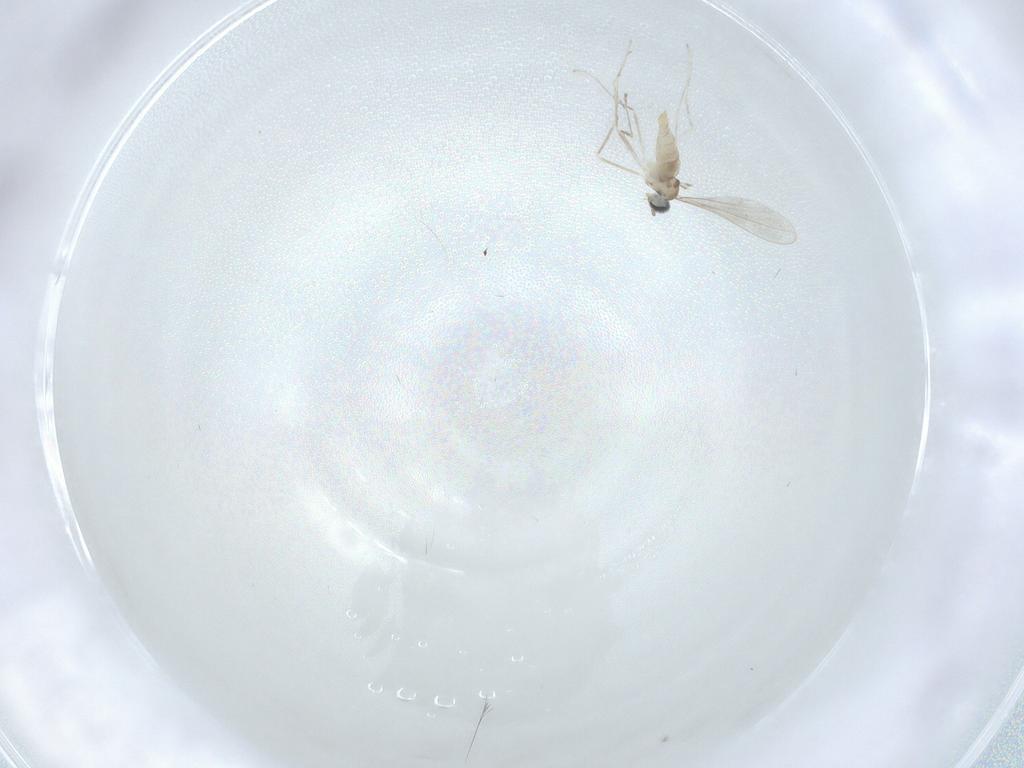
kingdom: Animalia
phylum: Arthropoda
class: Insecta
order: Diptera
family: Cecidomyiidae
